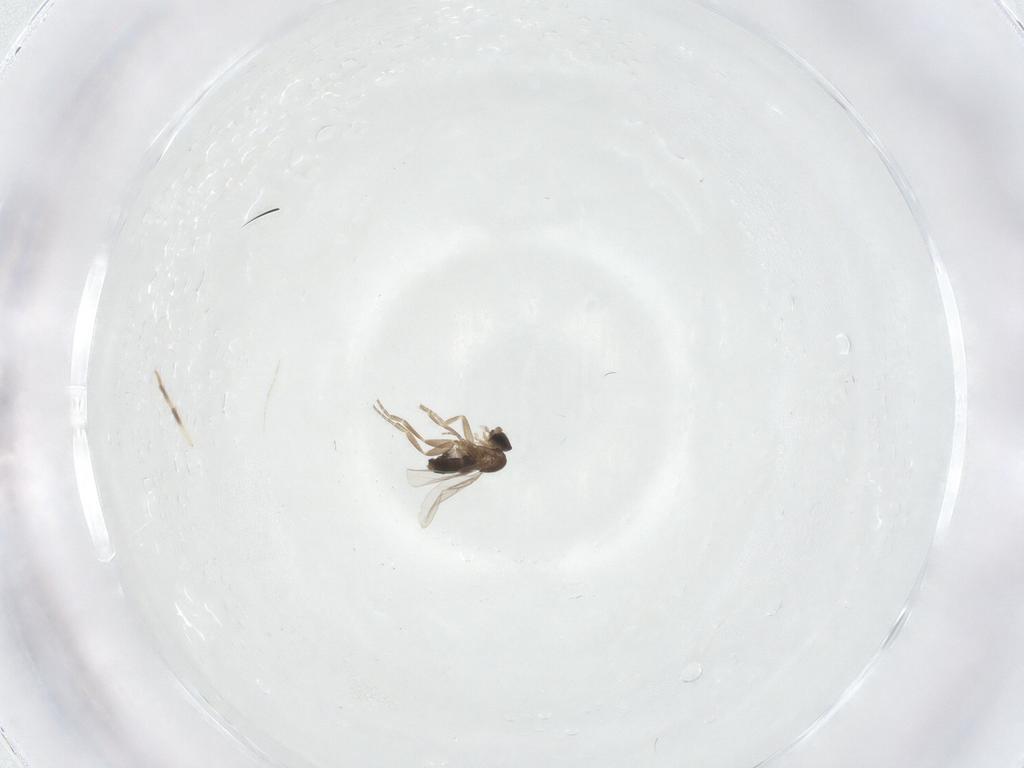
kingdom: Animalia
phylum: Arthropoda
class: Insecta
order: Diptera
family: Phoridae
